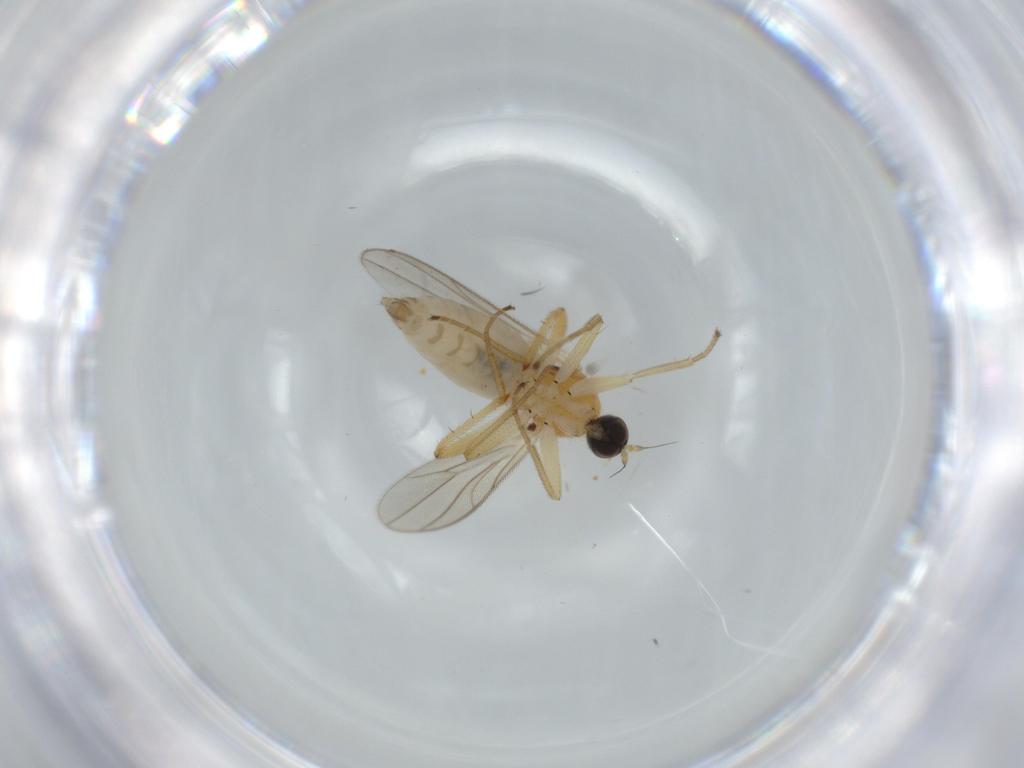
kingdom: Animalia
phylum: Arthropoda
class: Insecta
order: Diptera
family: Hybotidae
